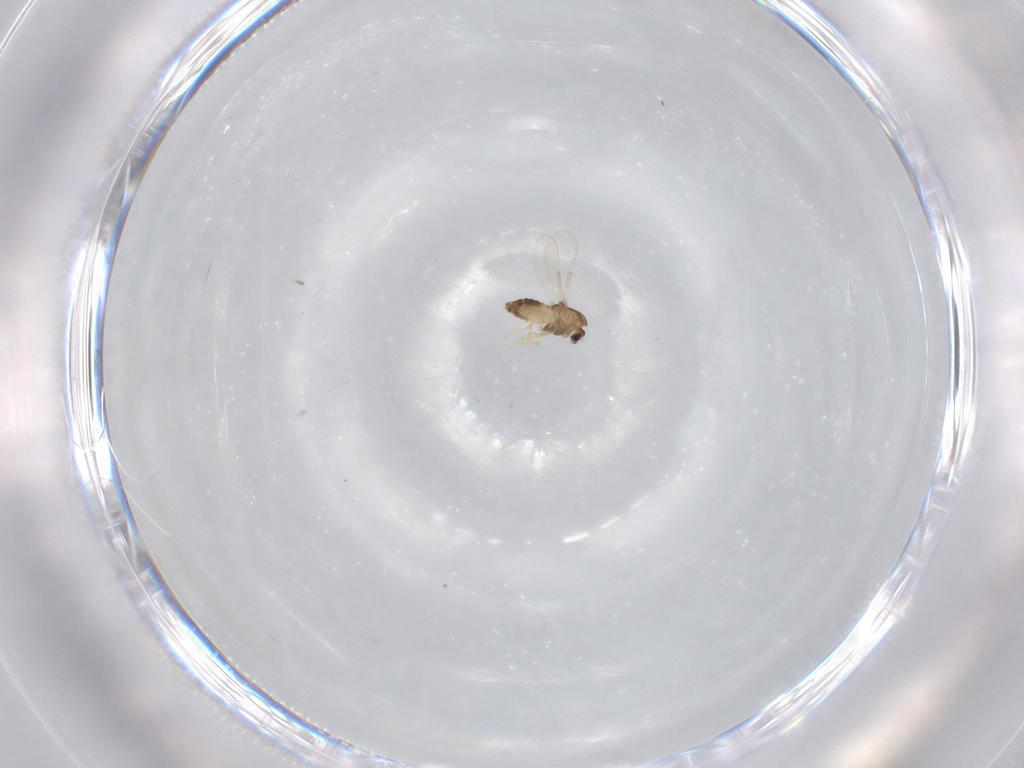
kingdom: Animalia
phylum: Arthropoda
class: Insecta
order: Diptera
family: Chironomidae
